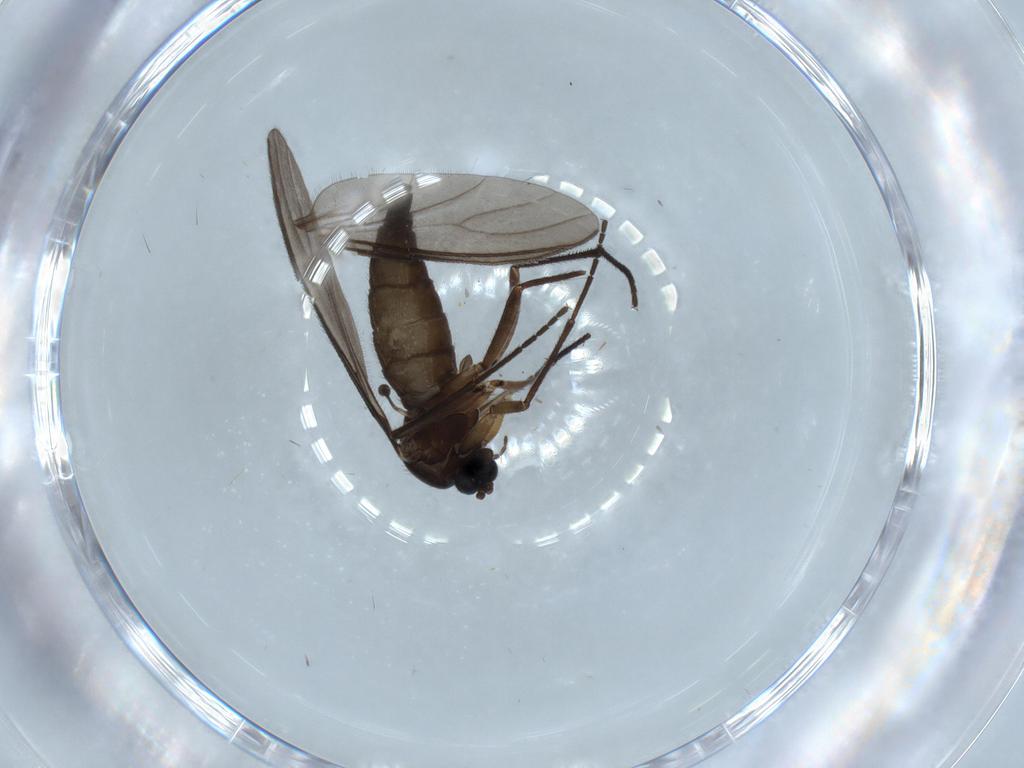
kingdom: Animalia
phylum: Arthropoda
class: Insecta
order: Diptera
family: Sciaridae
